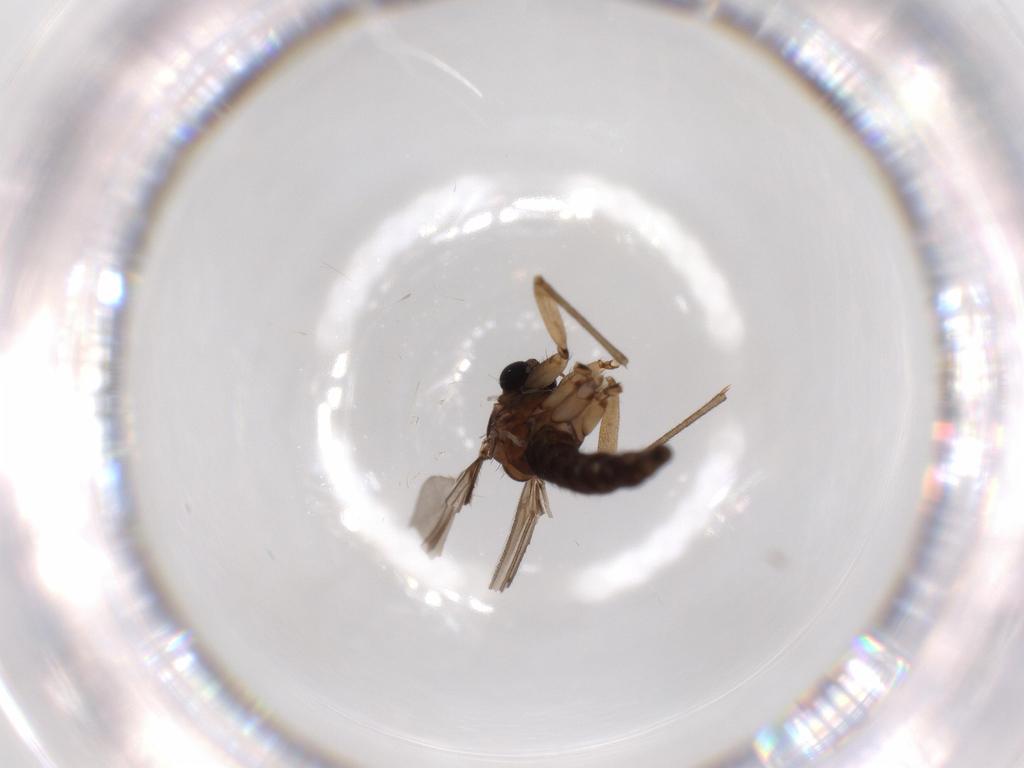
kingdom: Animalia
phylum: Arthropoda
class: Insecta
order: Diptera
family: Sciaridae
